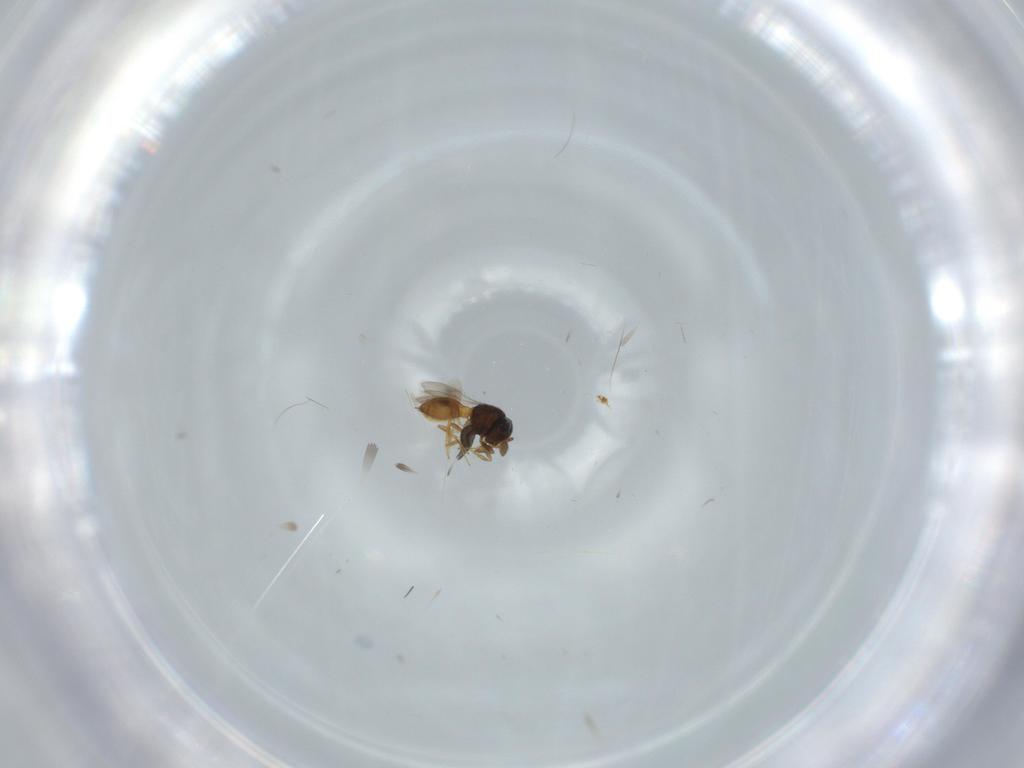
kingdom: Animalia
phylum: Arthropoda
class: Insecta
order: Hymenoptera
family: Scelionidae
